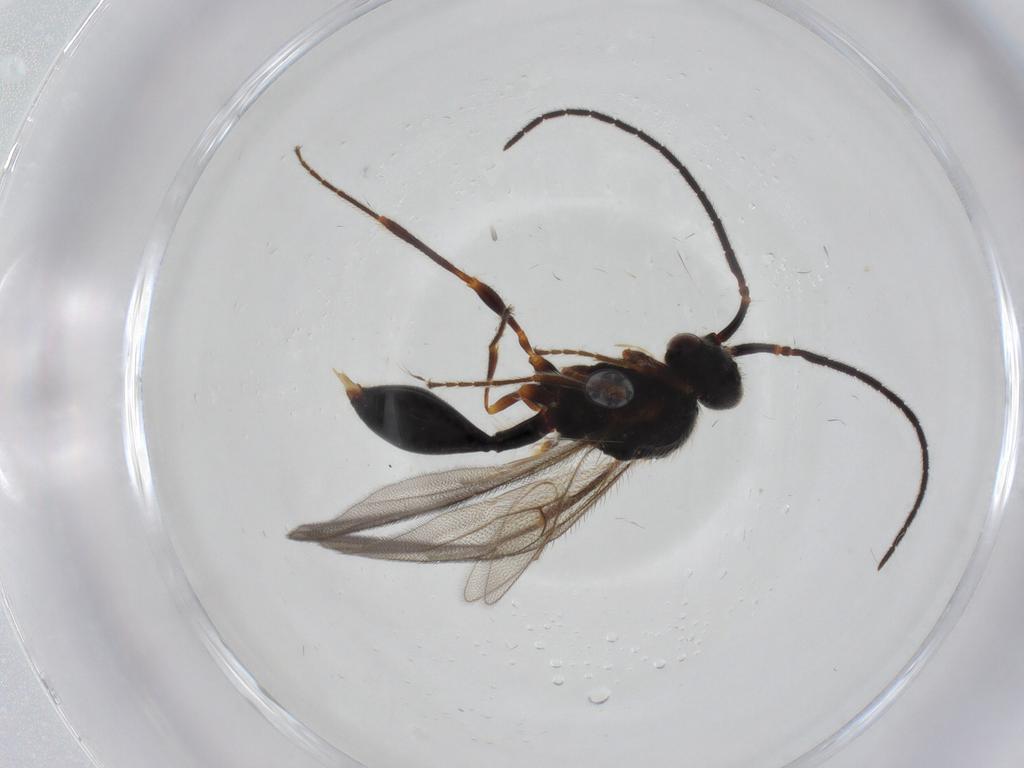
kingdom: Animalia
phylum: Arthropoda
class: Insecta
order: Hymenoptera
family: Diapriidae
